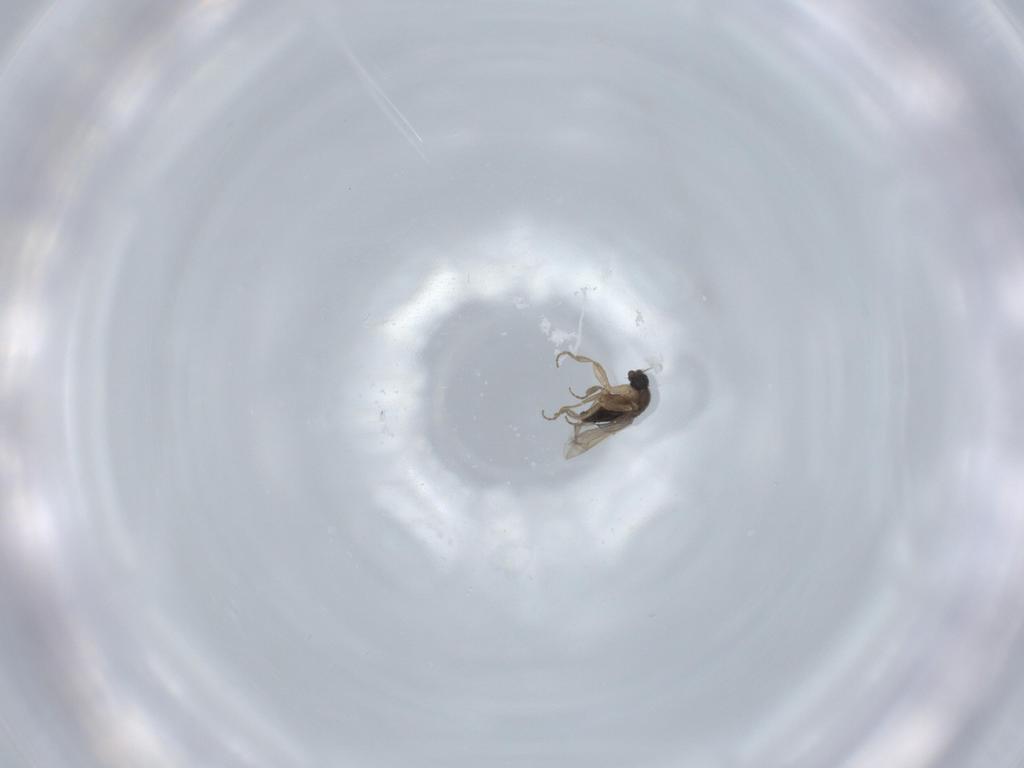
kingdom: Animalia
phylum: Arthropoda
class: Insecta
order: Diptera
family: Phoridae
